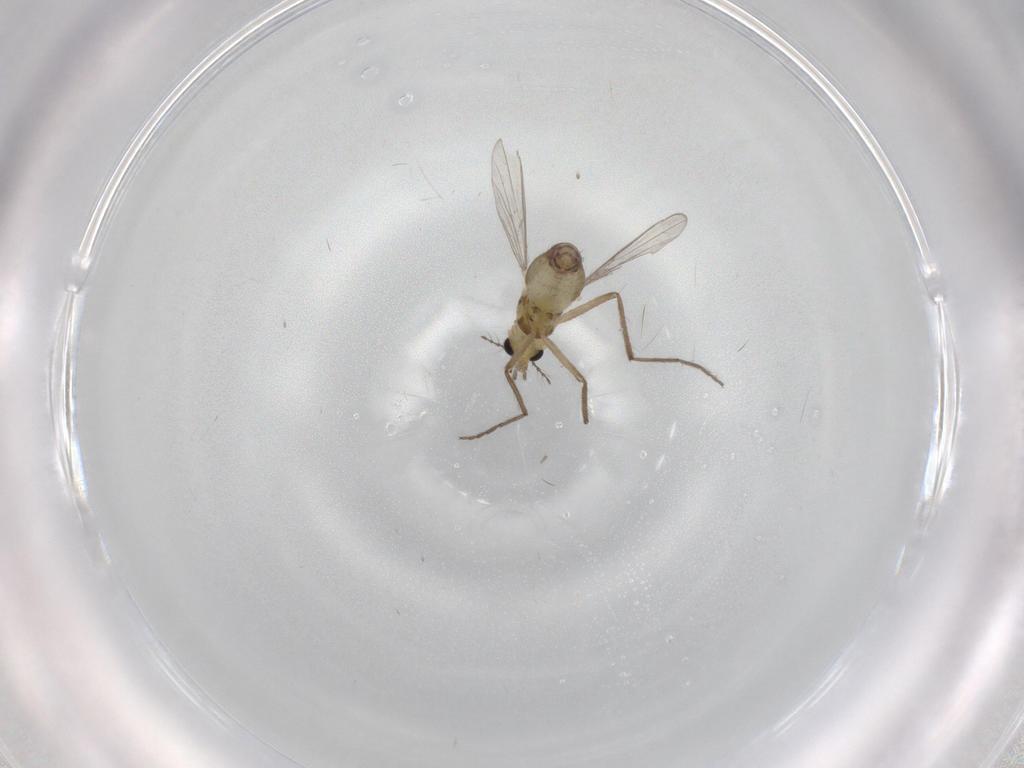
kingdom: Animalia
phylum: Arthropoda
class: Insecta
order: Diptera
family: Chironomidae
